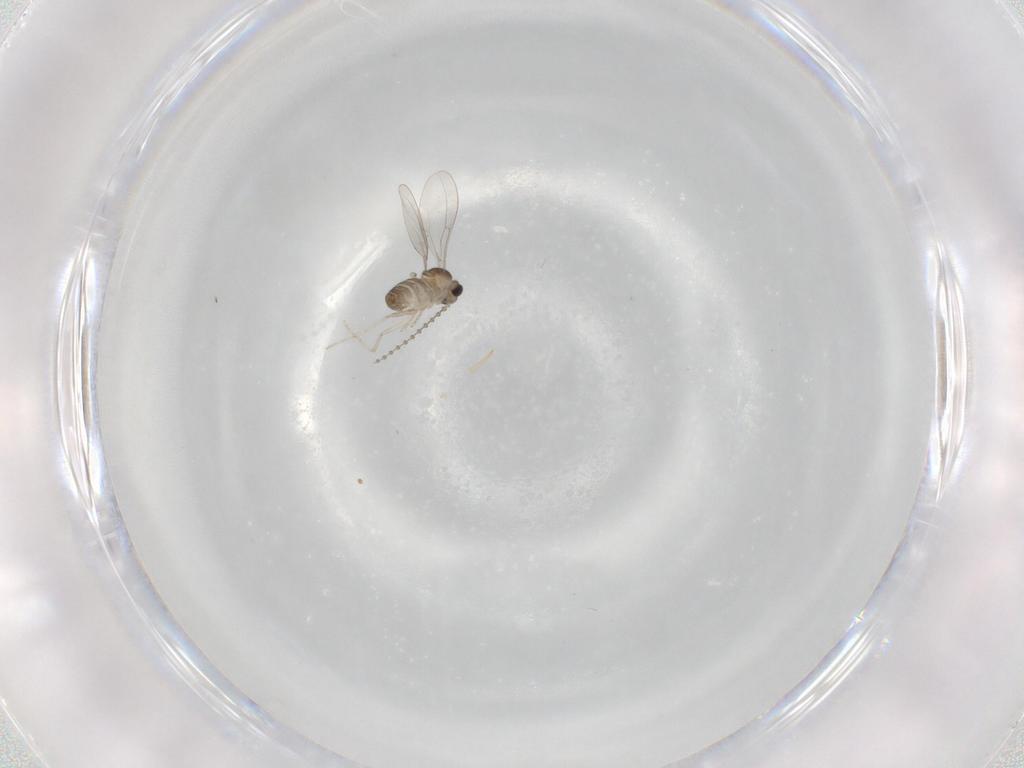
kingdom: Animalia
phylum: Arthropoda
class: Insecta
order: Diptera
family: Cecidomyiidae
